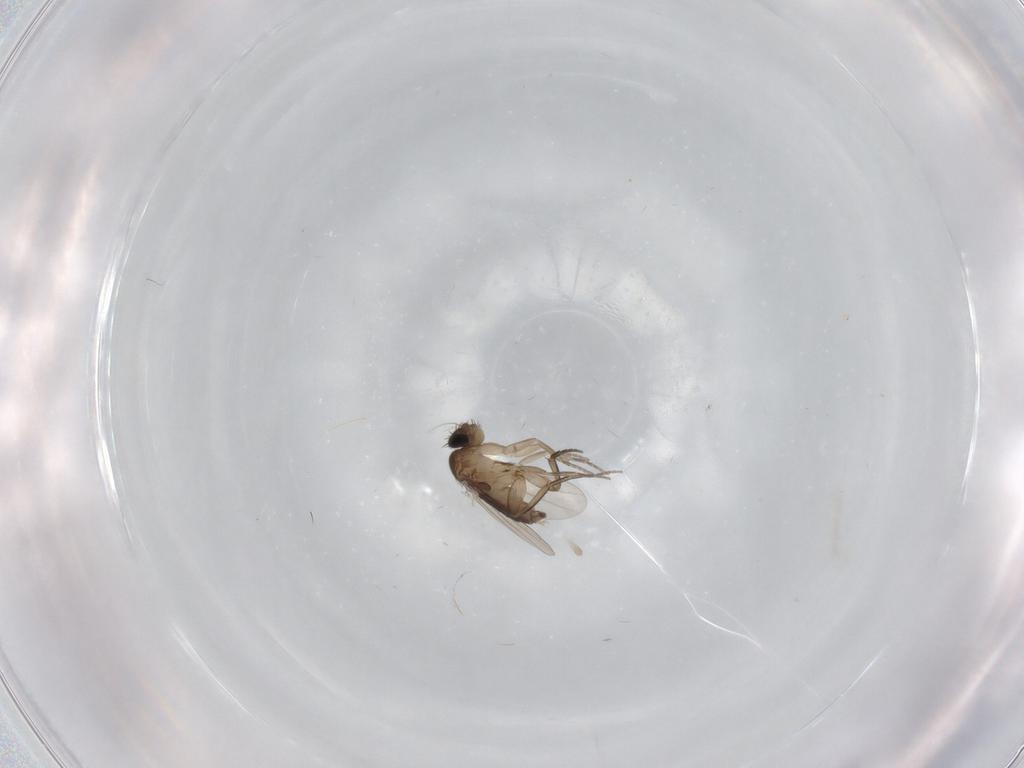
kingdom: Animalia
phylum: Arthropoda
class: Insecta
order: Diptera
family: Phoridae
